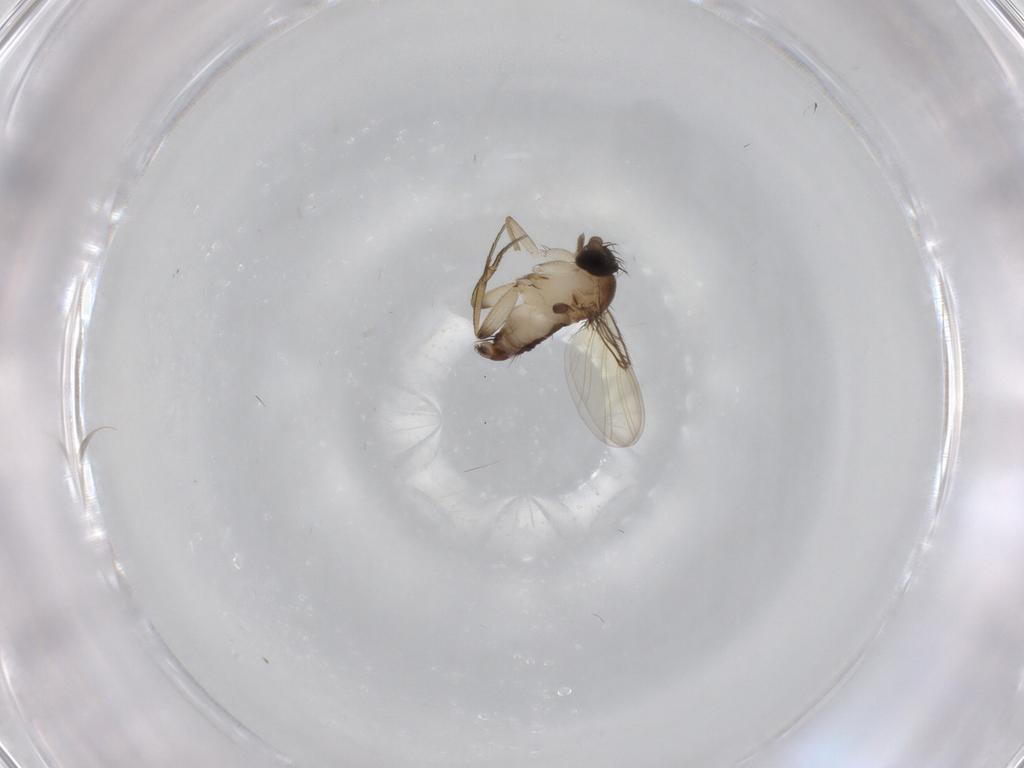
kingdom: Animalia
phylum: Arthropoda
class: Insecta
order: Diptera
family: Phoridae
